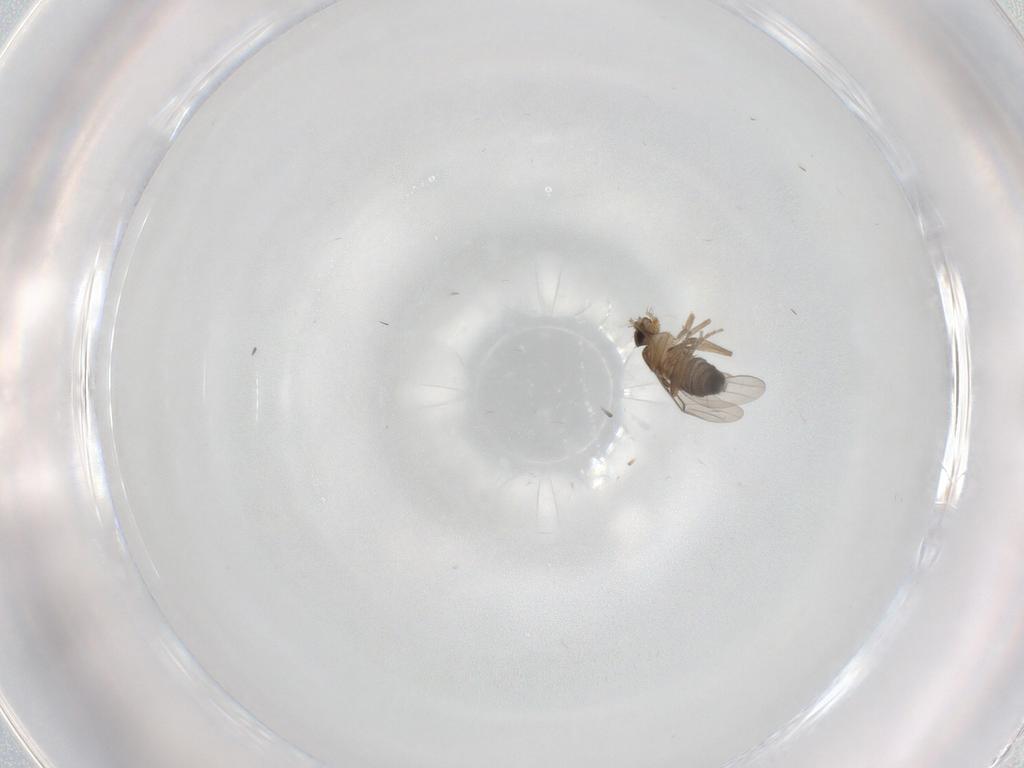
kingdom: Animalia
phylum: Arthropoda
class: Insecta
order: Diptera
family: Phoridae
